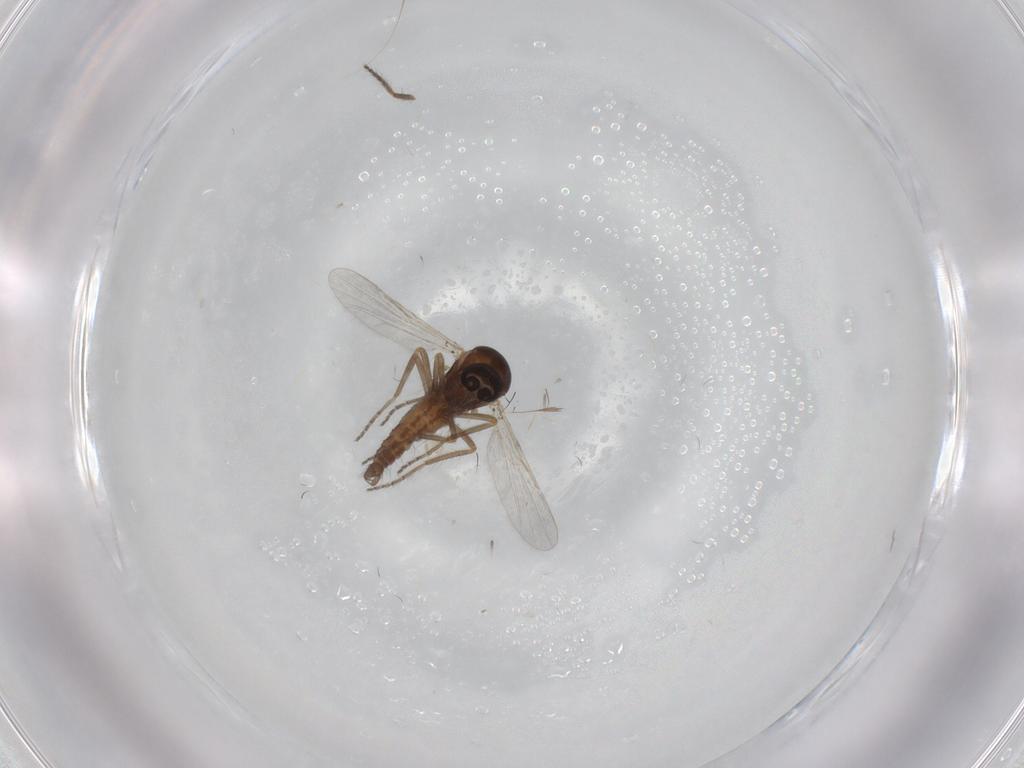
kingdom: Animalia
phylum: Arthropoda
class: Insecta
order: Diptera
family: Ceratopogonidae
